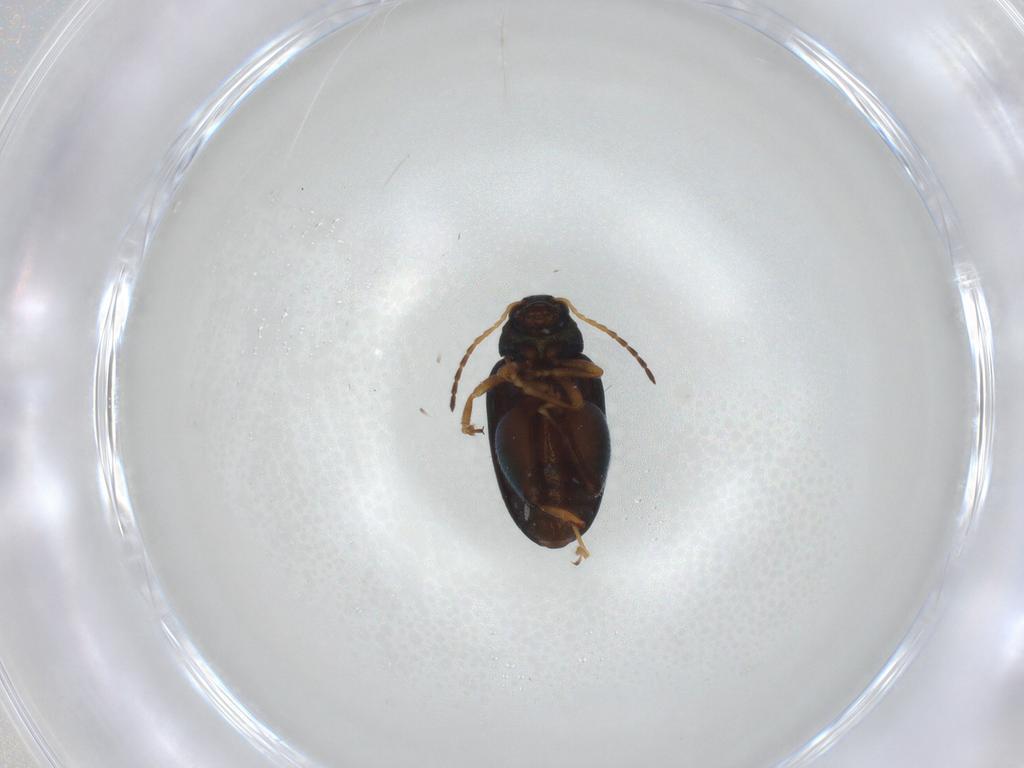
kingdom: Animalia
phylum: Arthropoda
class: Insecta
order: Coleoptera
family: Chrysomelidae
